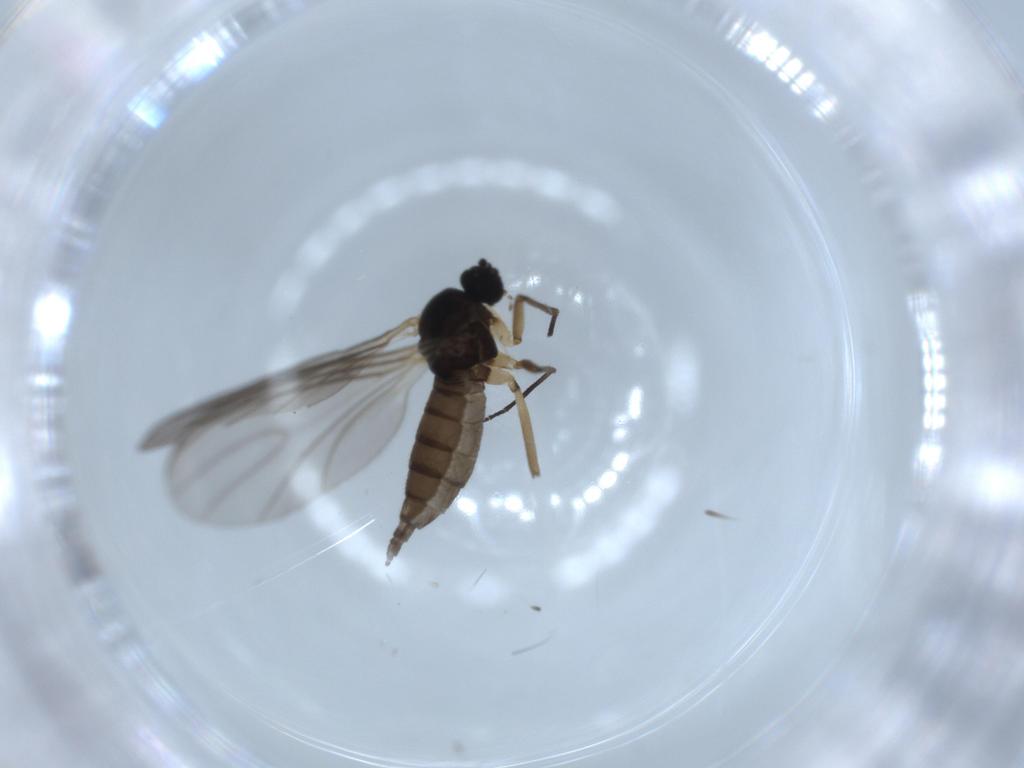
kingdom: Animalia
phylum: Arthropoda
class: Insecta
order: Diptera
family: Sciaridae
